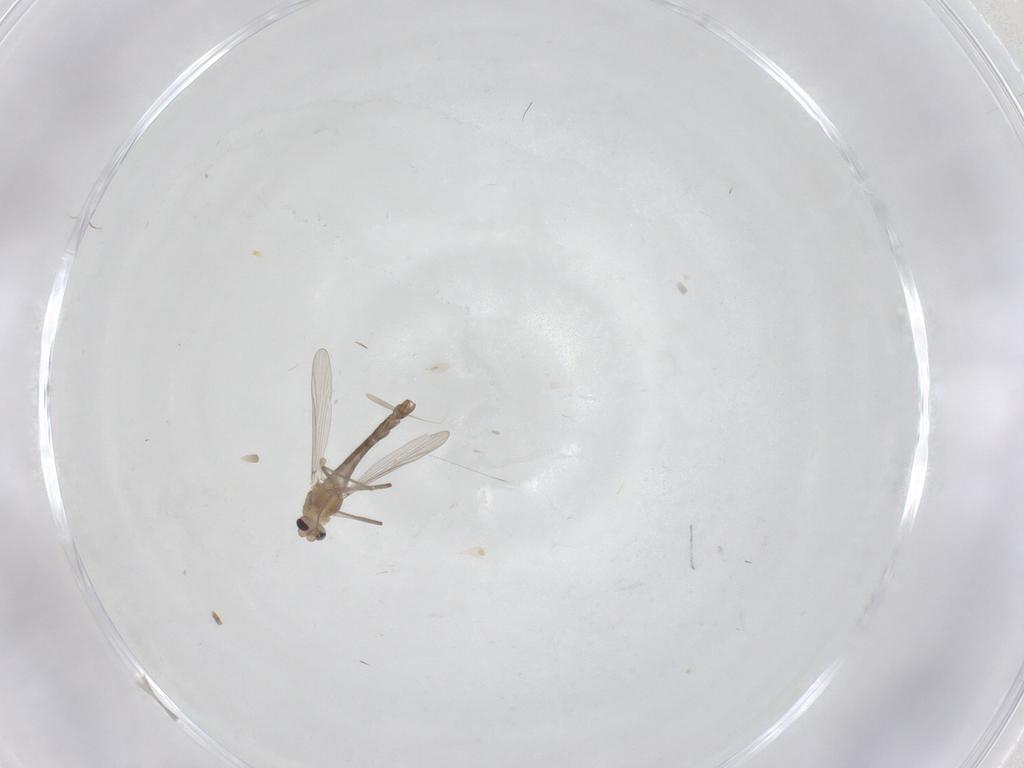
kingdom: Animalia
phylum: Arthropoda
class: Insecta
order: Diptera
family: Chironomidae
